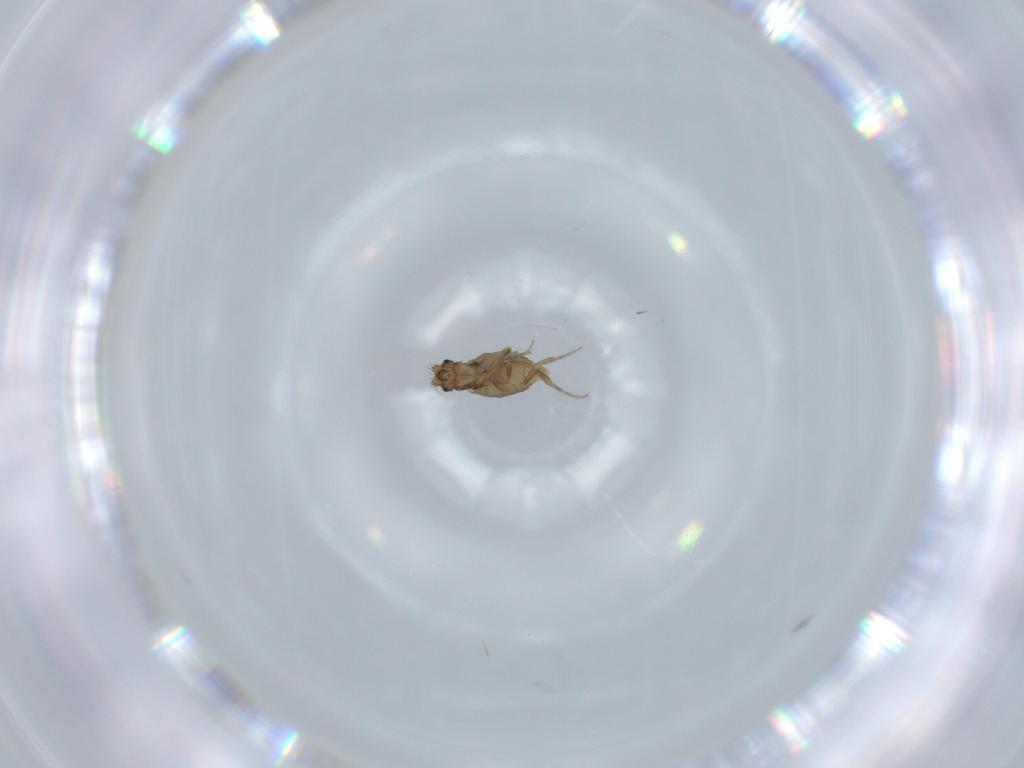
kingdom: Animalia
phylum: Arthropoda
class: Insecta
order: Diptera
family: Phoridae
